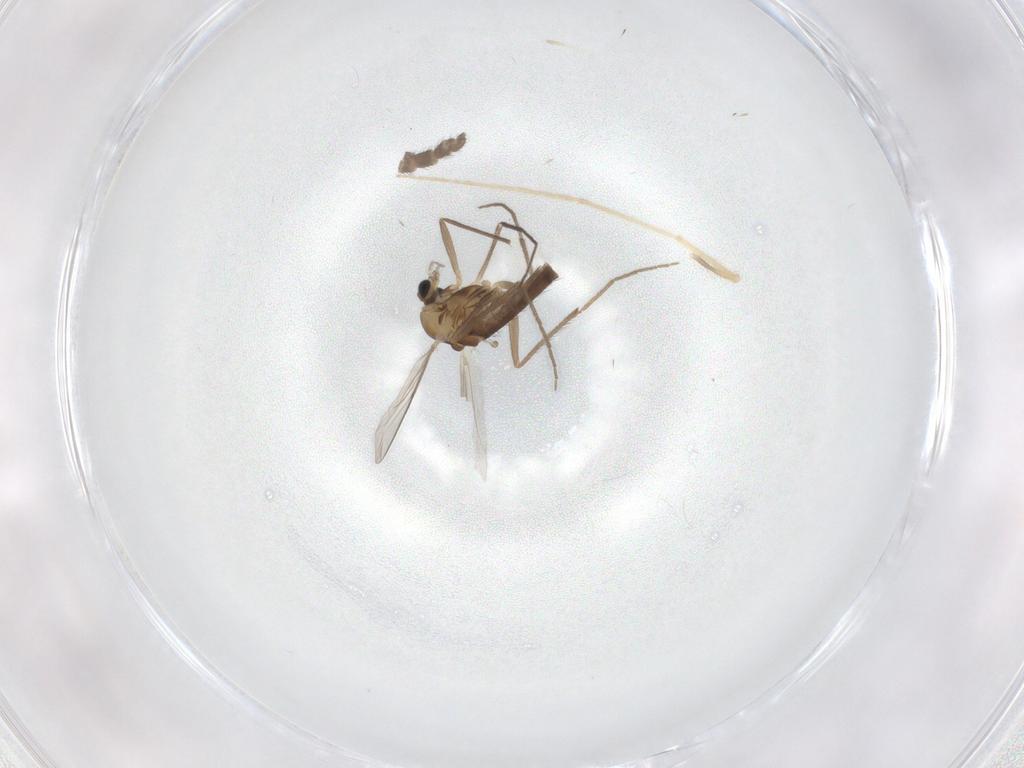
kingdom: Animalia
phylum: Arthropoda
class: Insecta
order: Diptera
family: Chironomidae
